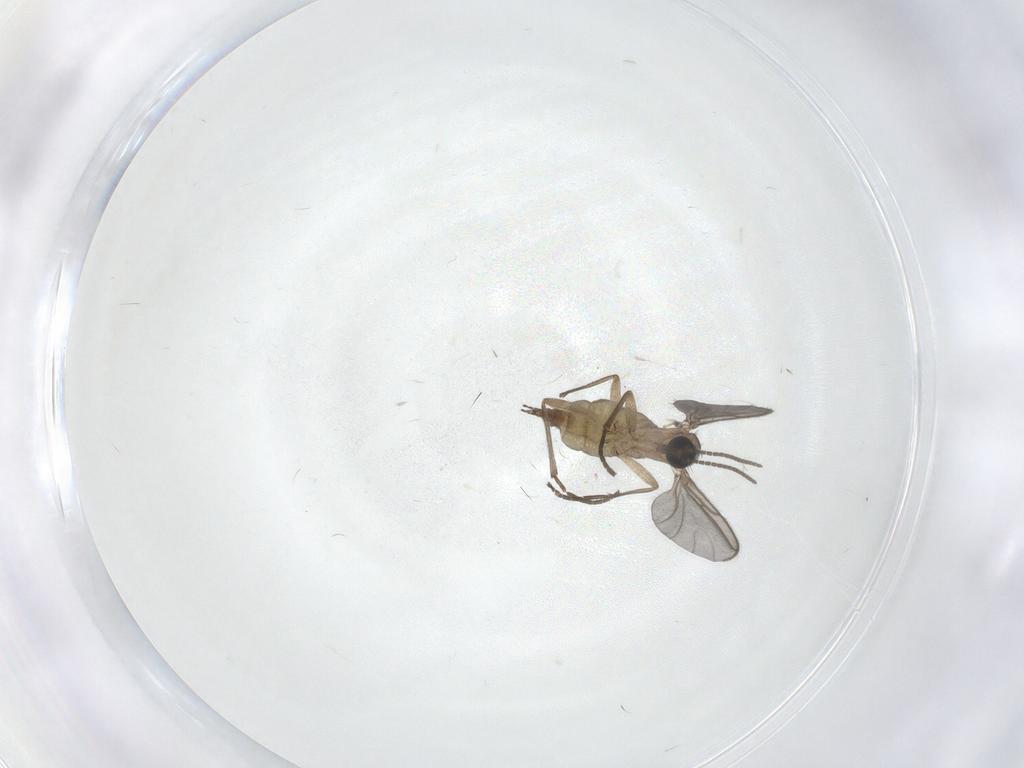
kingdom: Animalia
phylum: Arthropoda
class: Insecta
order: Diptera
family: Sciaridae
